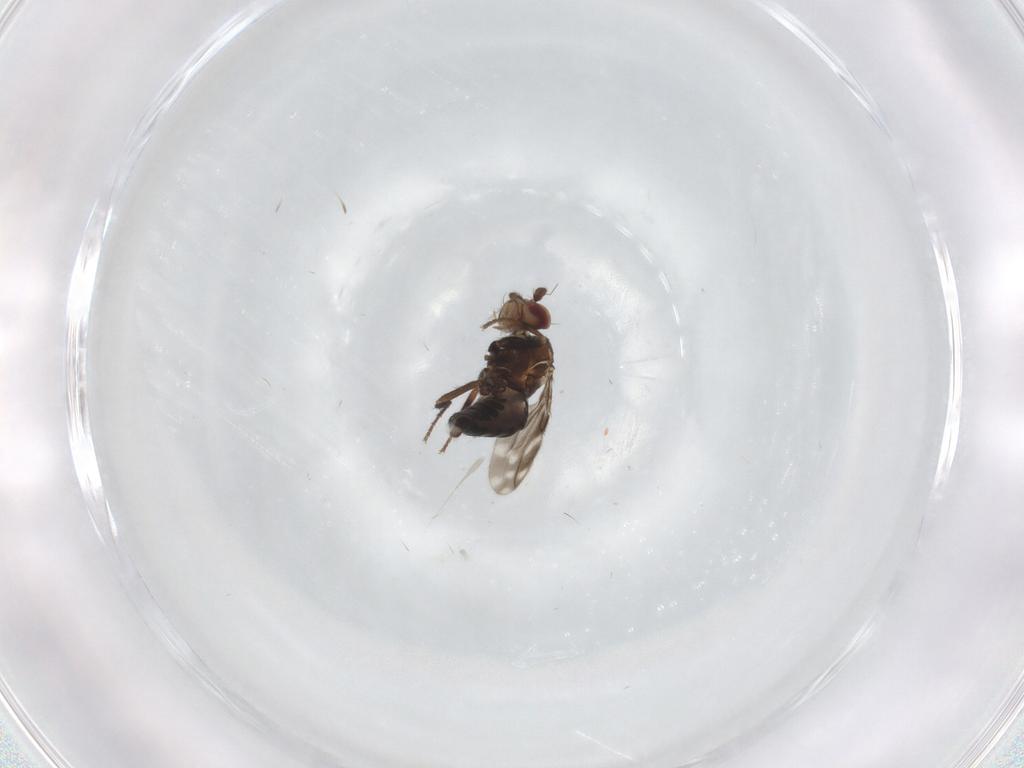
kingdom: Animalia
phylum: Arthropoda
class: Insecta
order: Diptera
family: Sphaeroceridae
